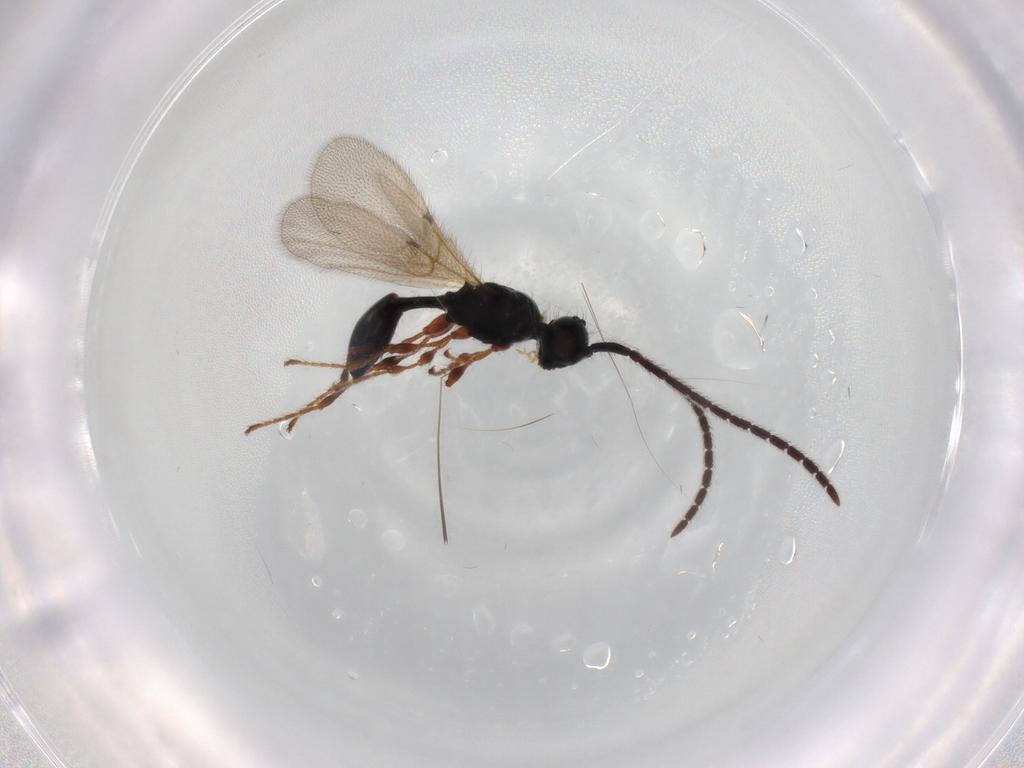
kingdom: Animalia
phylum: Arthropoda
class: Insecta
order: Hymenoptera
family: Diapriidae
